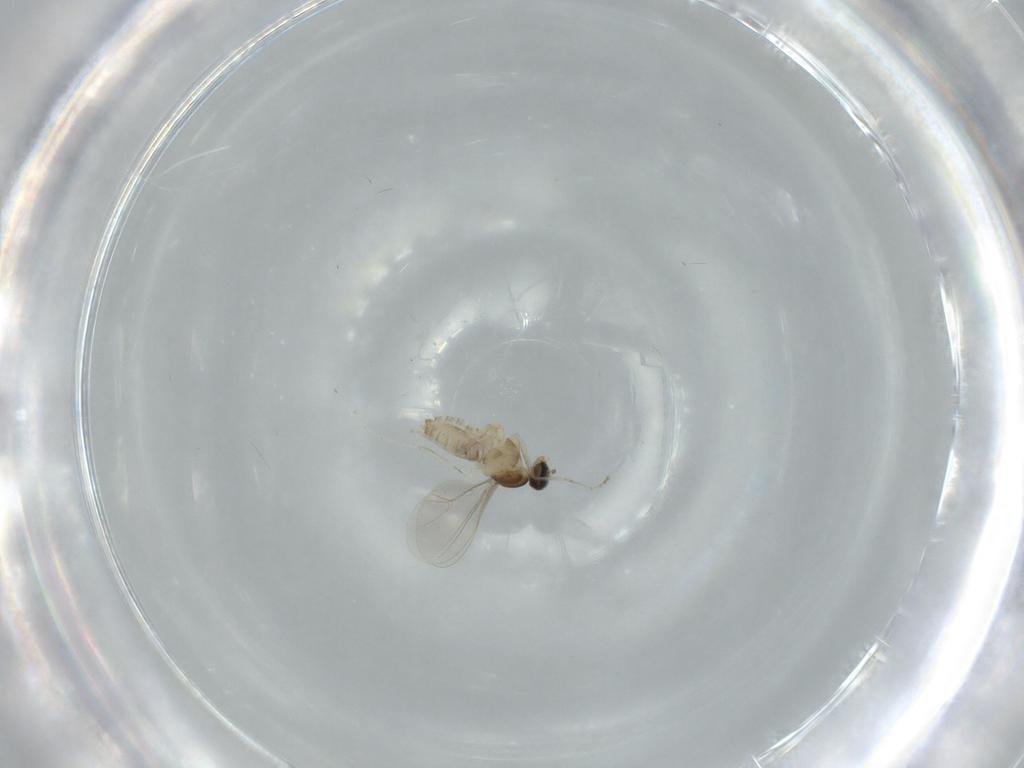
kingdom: Animalia
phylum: Arthropoda
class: Insecta
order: Diptera
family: Cecidomyiidae
